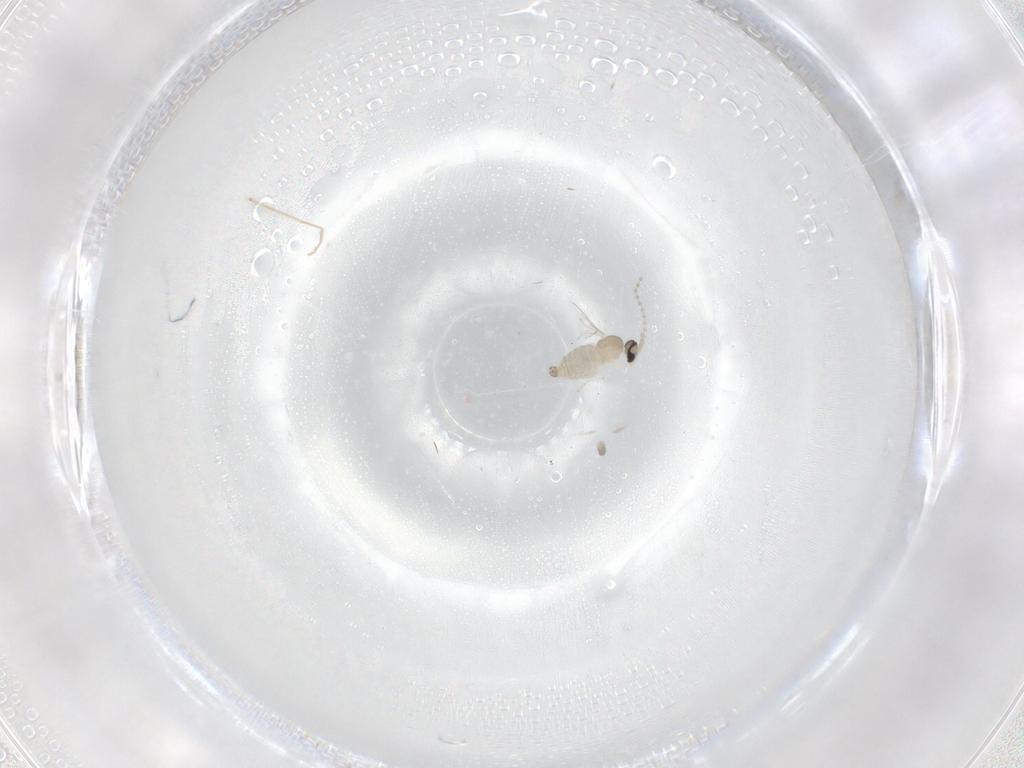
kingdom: Animalia
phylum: Arthropoda
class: Insecta
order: Diptera
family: Cecidomyiidae
